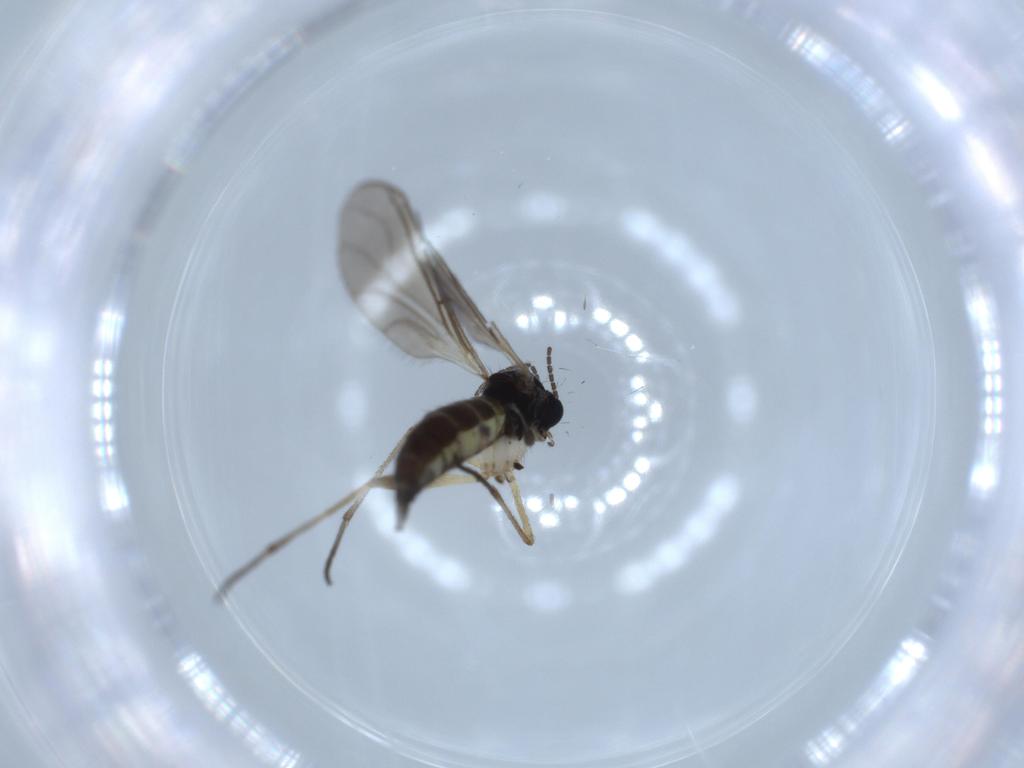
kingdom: Animalia
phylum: Arthropoda
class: Insecta
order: Diptera
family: Sciaridae
